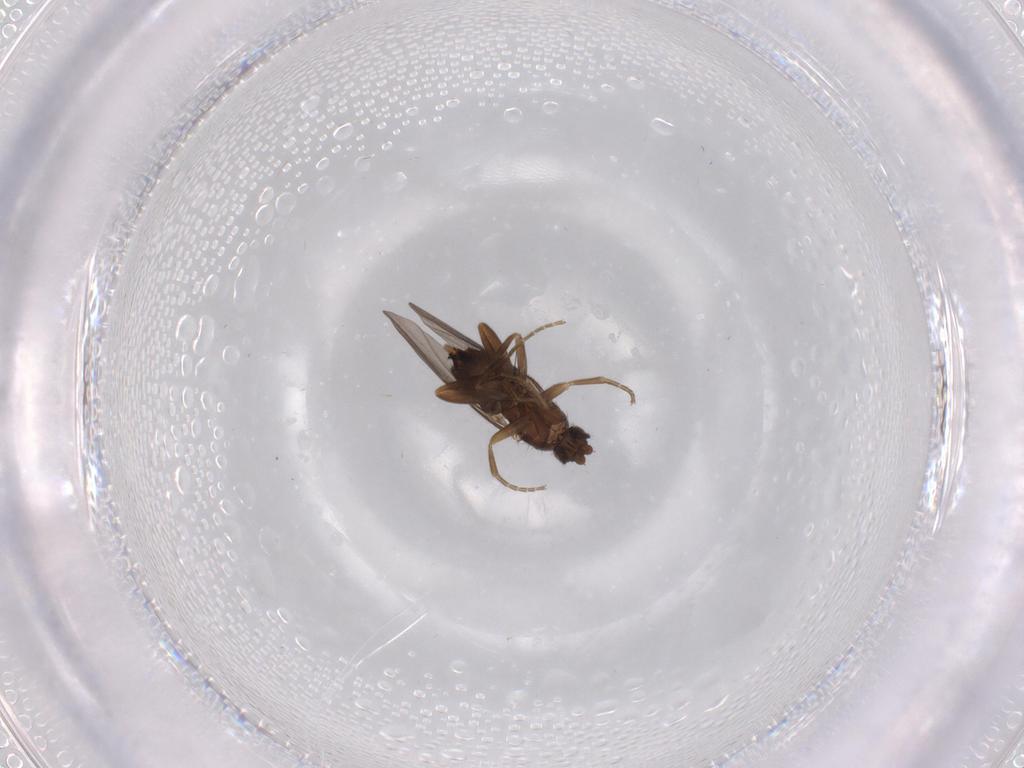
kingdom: Animalia
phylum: Arthropoda
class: Insecta
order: Diptera
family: Phoridae
